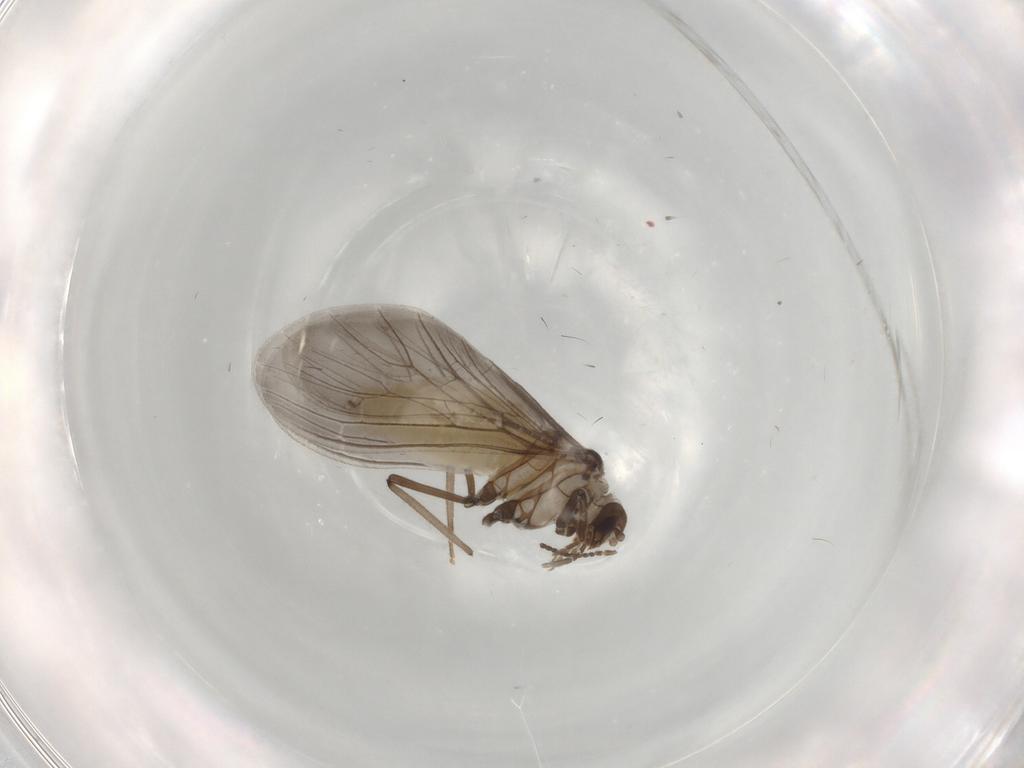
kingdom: Animalia
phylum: Arthropoda
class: Insecta
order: Neuroptera
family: Coniopterygidae
